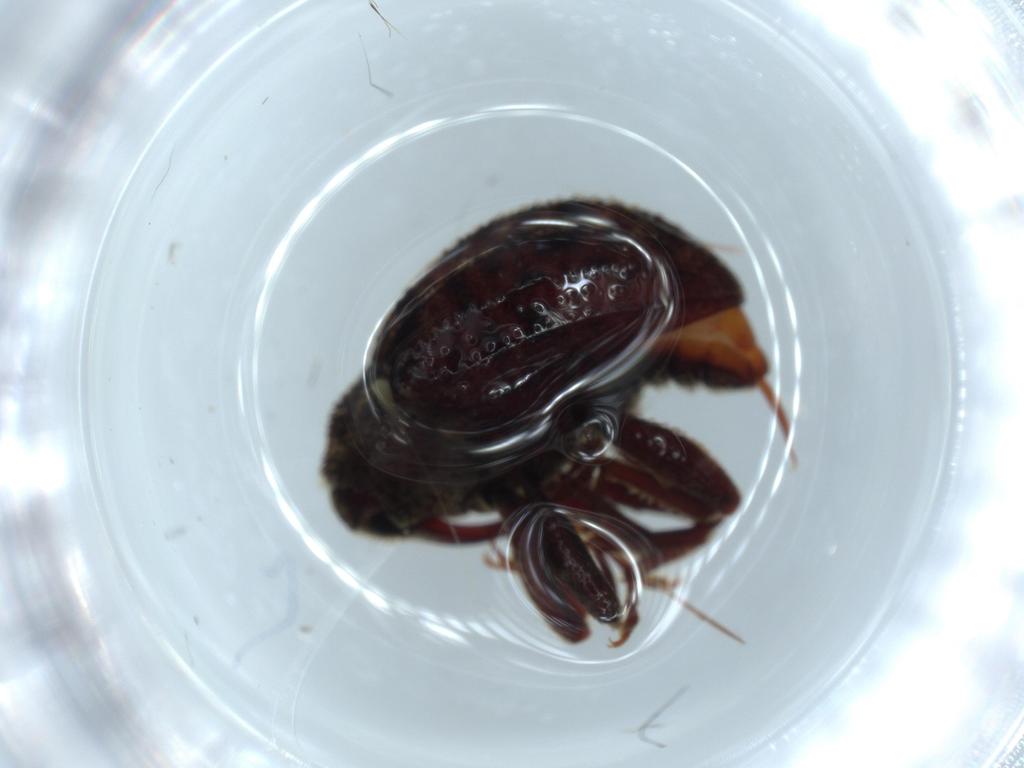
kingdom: Animalia
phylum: Arthropoda
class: Insecta
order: Coleoptera
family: Curculionidae
